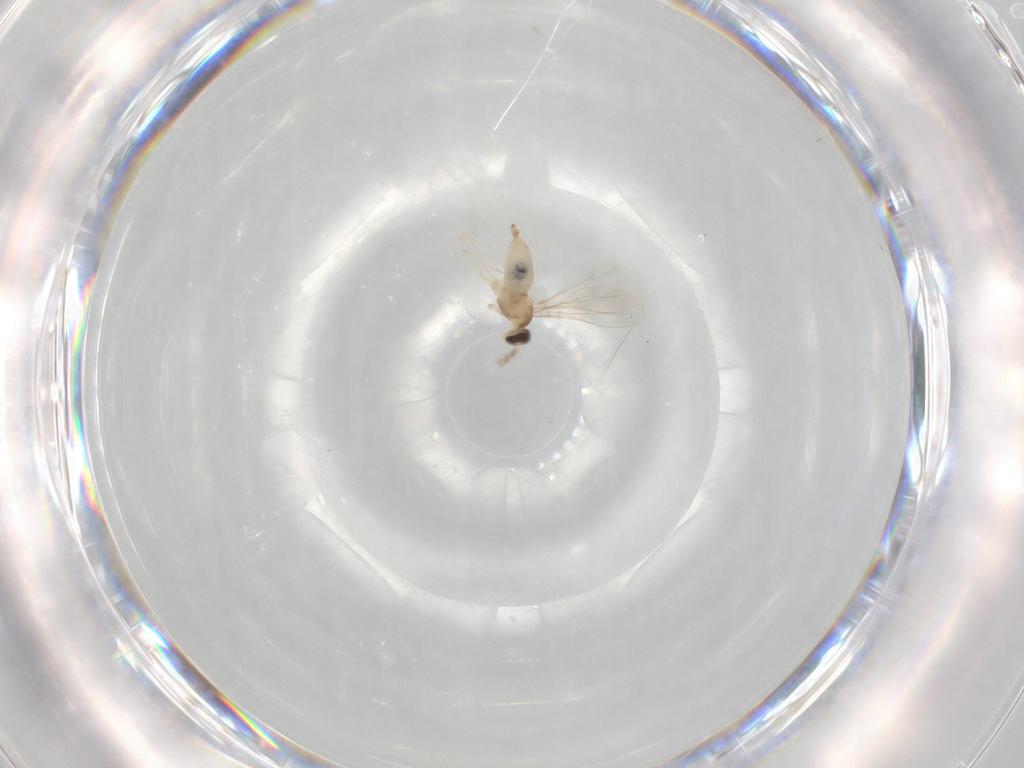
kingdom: Animalia
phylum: Arthropoda
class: Insecta
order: Diptera
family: Cecidomyiidae
